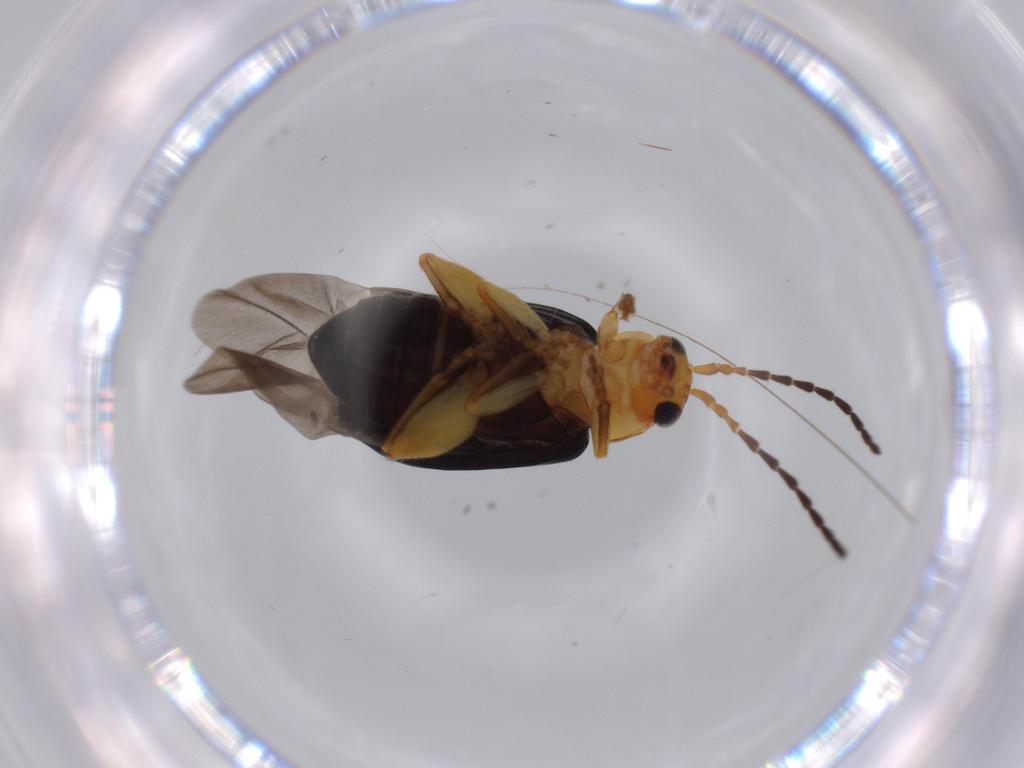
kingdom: Animalia
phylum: Arthropoda
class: Insecta
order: Coleoptera
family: Chrysomelidae
